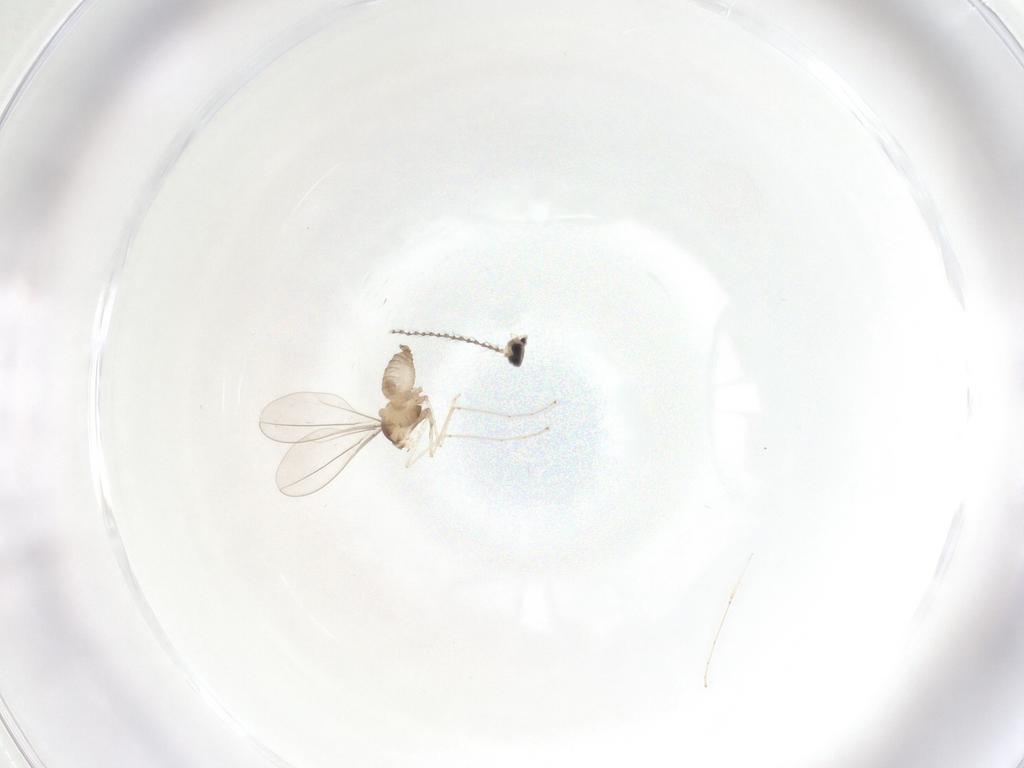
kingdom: Animalia
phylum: Arthropoda
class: Insecta
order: Diptera
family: Cecidomyiidae
